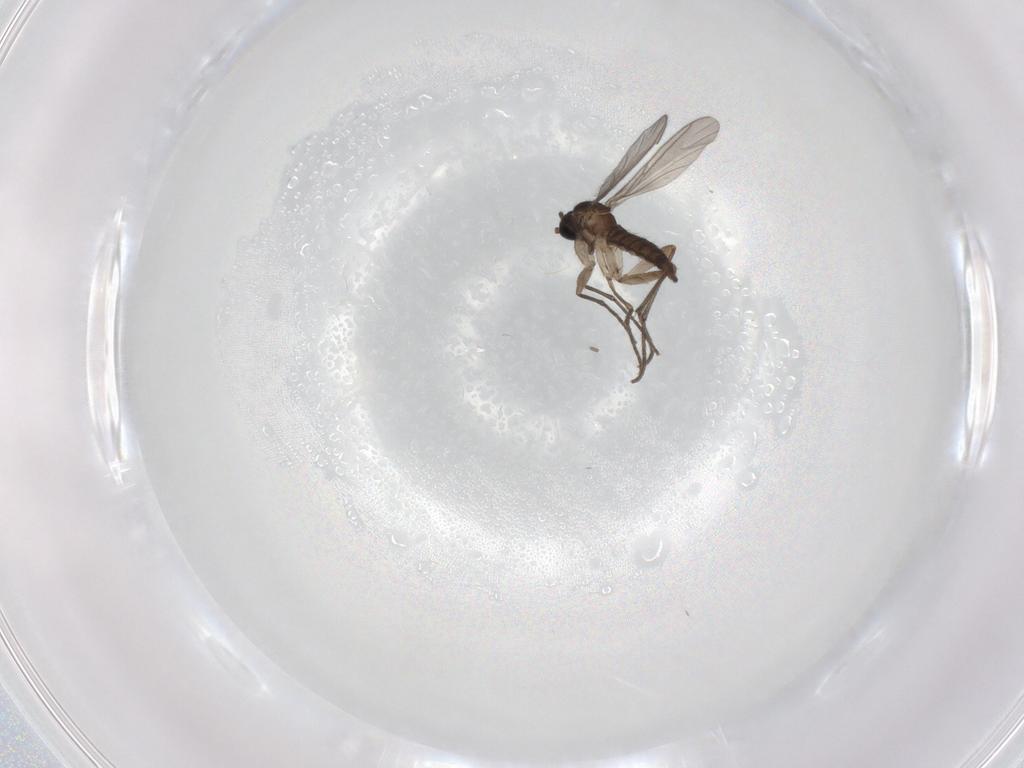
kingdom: Animalia
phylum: Arthropoda
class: Insecta
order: Diptera
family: Sciaridae
